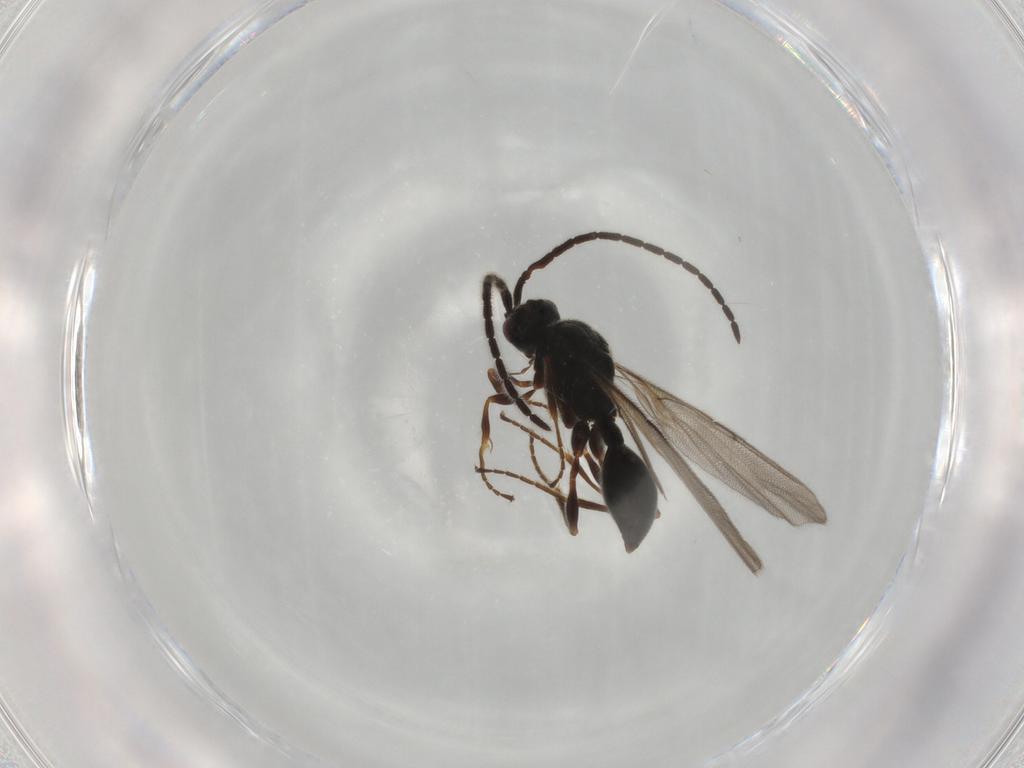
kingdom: Animalia
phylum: Arthropoda
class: Insecta
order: Hymenoptera
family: Dryinidae
